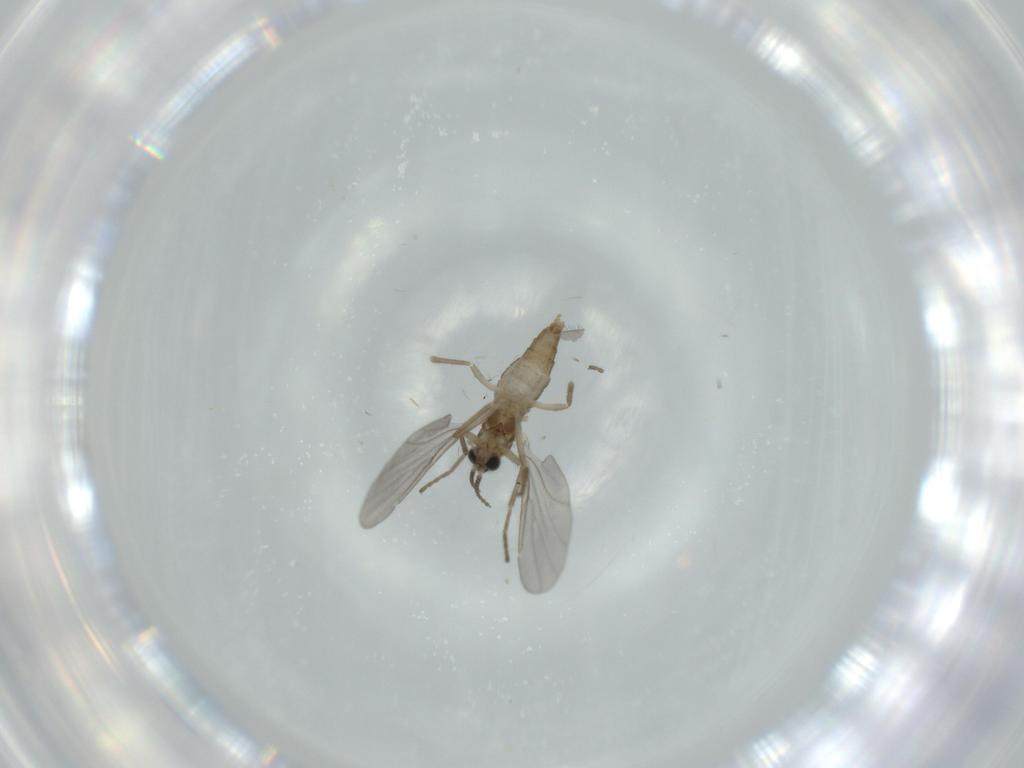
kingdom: Animalia
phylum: Arthropoda
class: Insecta
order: Diptera
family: Cecidomyiidae
